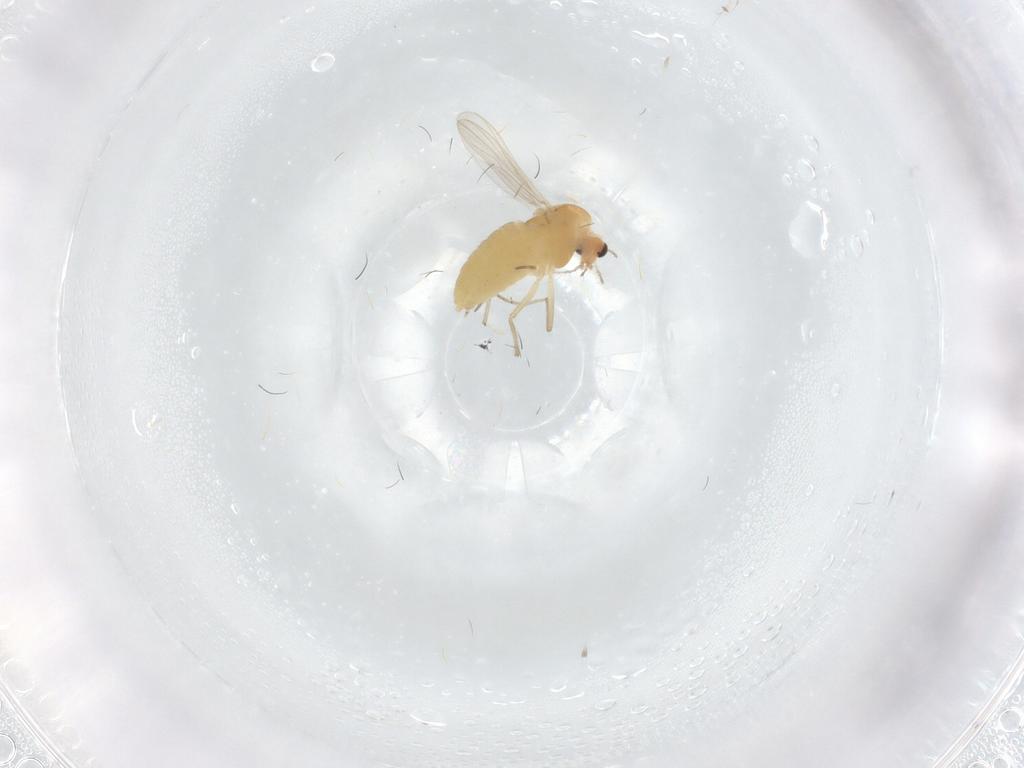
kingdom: Animalia
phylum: Arthropoda
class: Insecta
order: Diptera
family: Chironomidae
